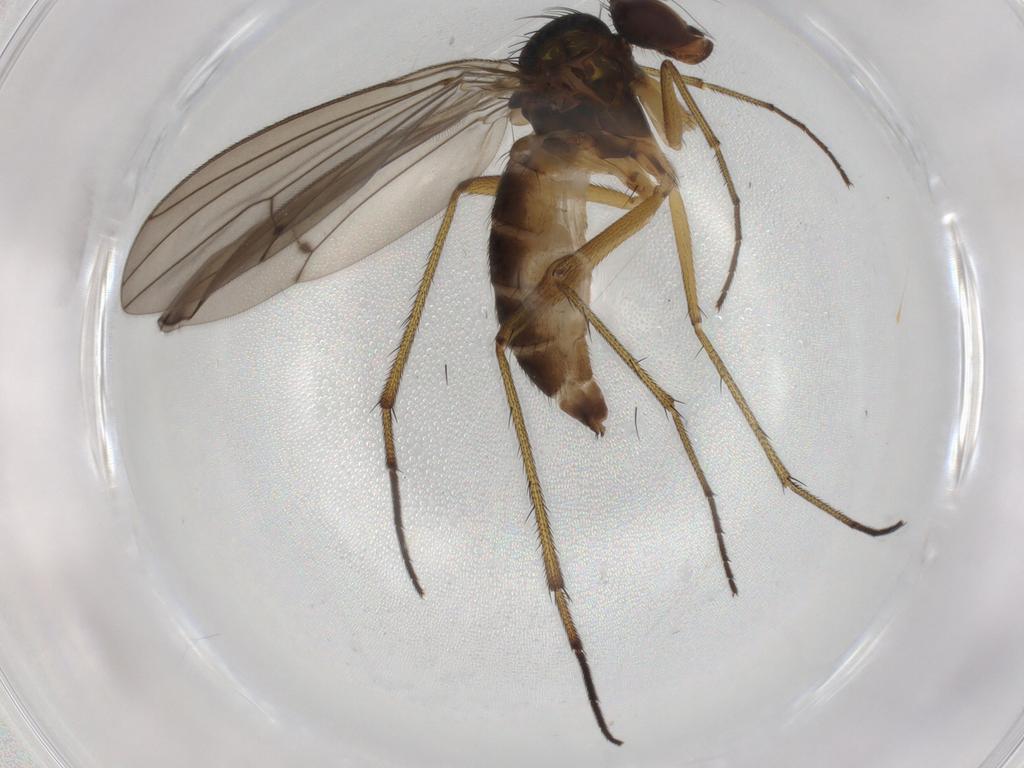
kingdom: Animalia
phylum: Arthropoda
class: Insecta
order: Diptera
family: Dolichopodidae
